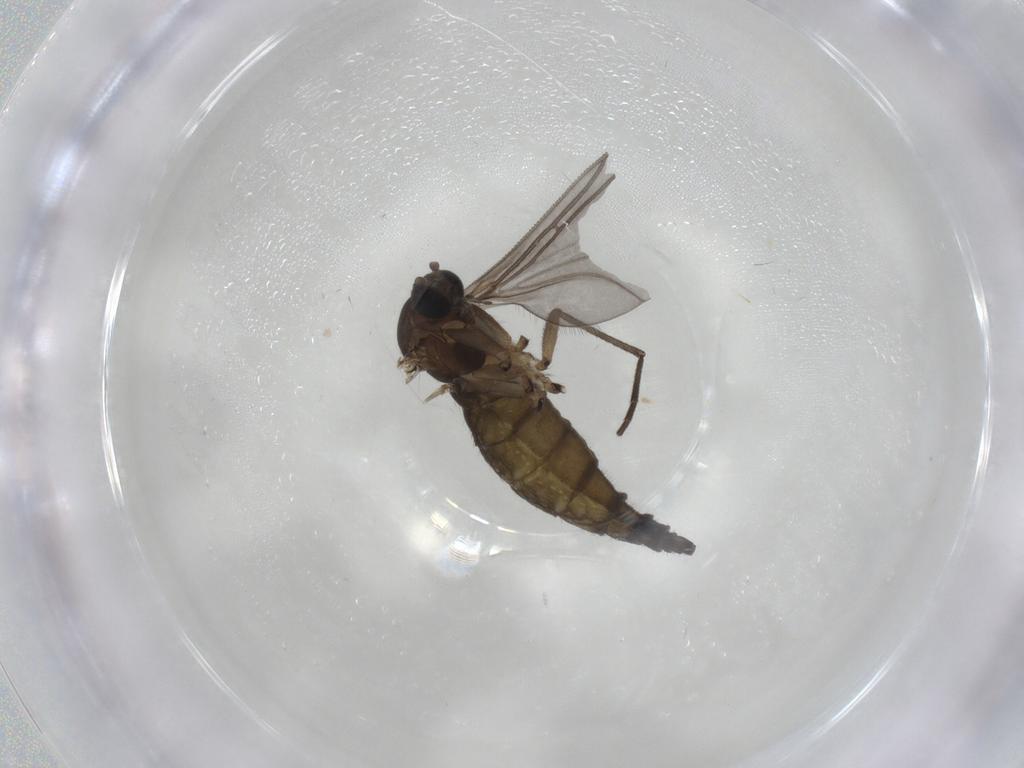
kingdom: Animalia
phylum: Arthropoda
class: Insecta
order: Diptera
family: Sciaridae
